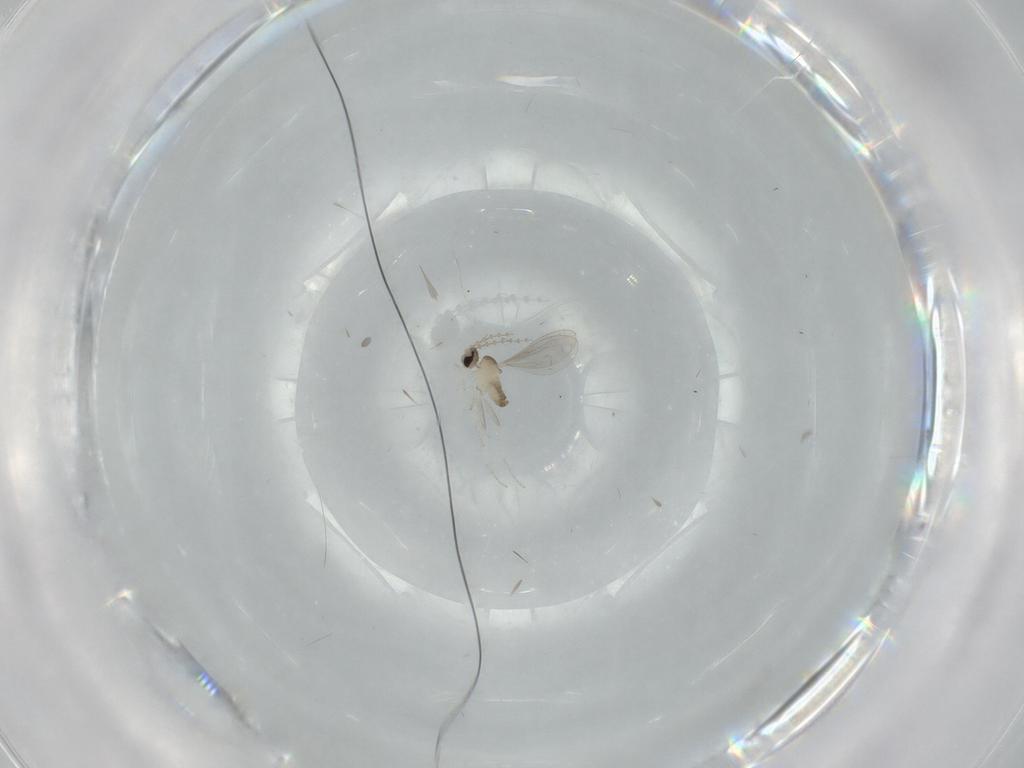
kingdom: Animalia
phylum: Arthropoda
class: Insecta
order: Diptera
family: Cecidomyiidae
